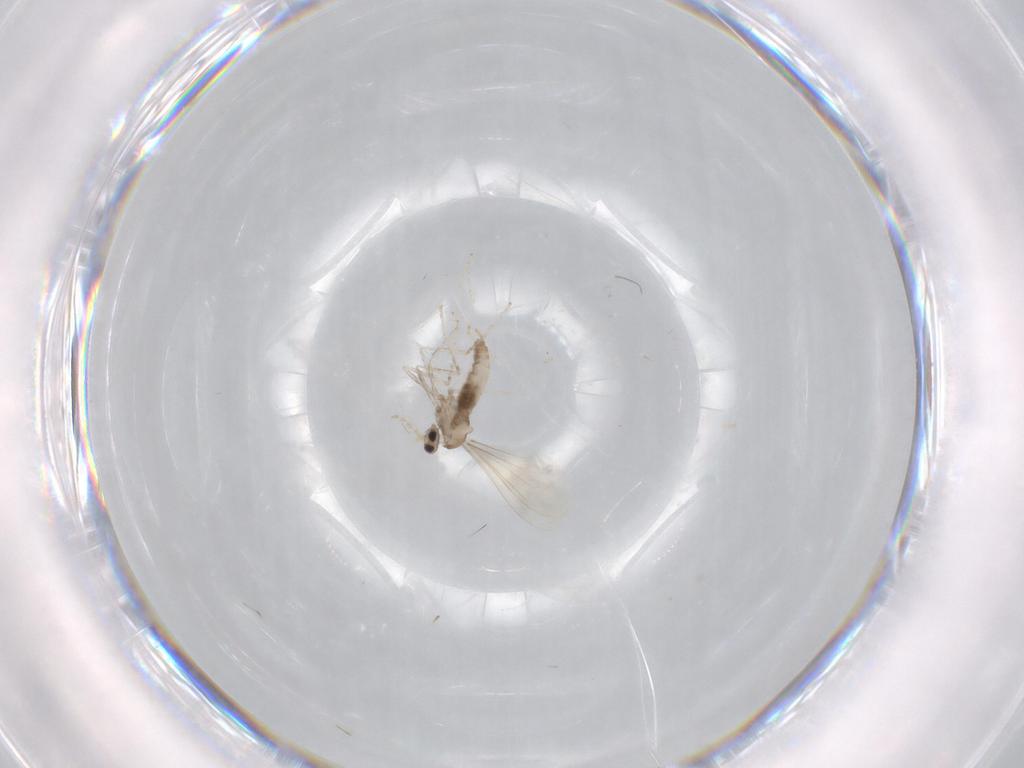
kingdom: Animalia
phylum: Arthropoda
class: Insecta
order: Diptera
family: Cecidomyiidae
